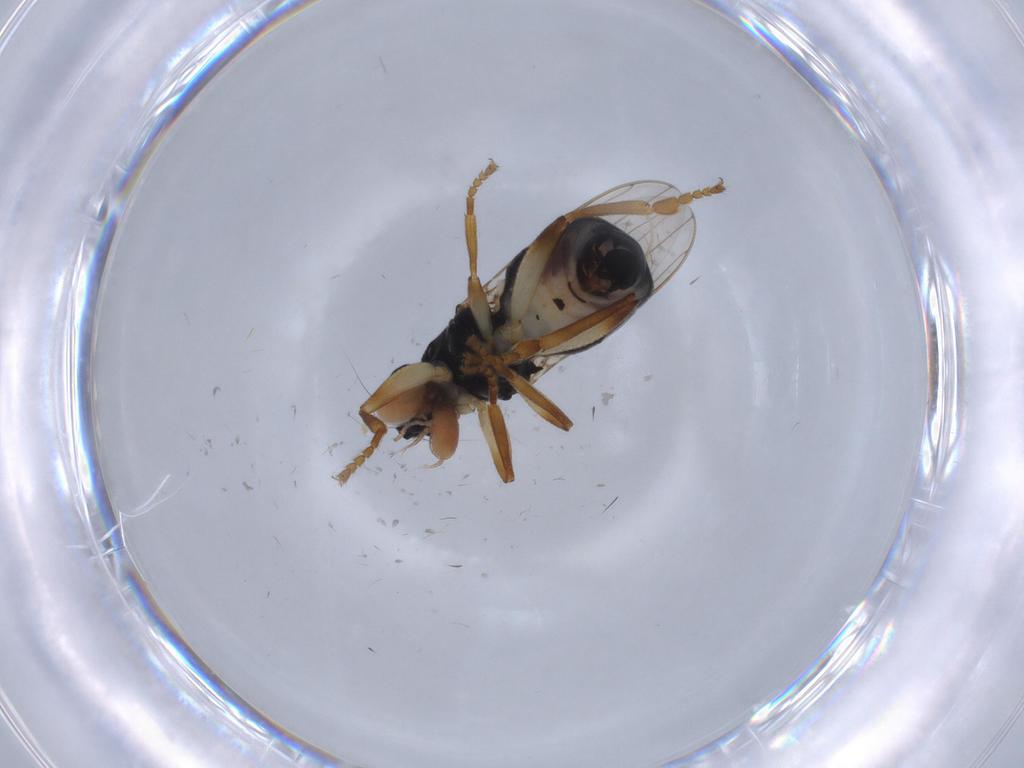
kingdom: Animalia
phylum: Arthropoda
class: Insecta
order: Diptera
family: Sphaeroceridae
